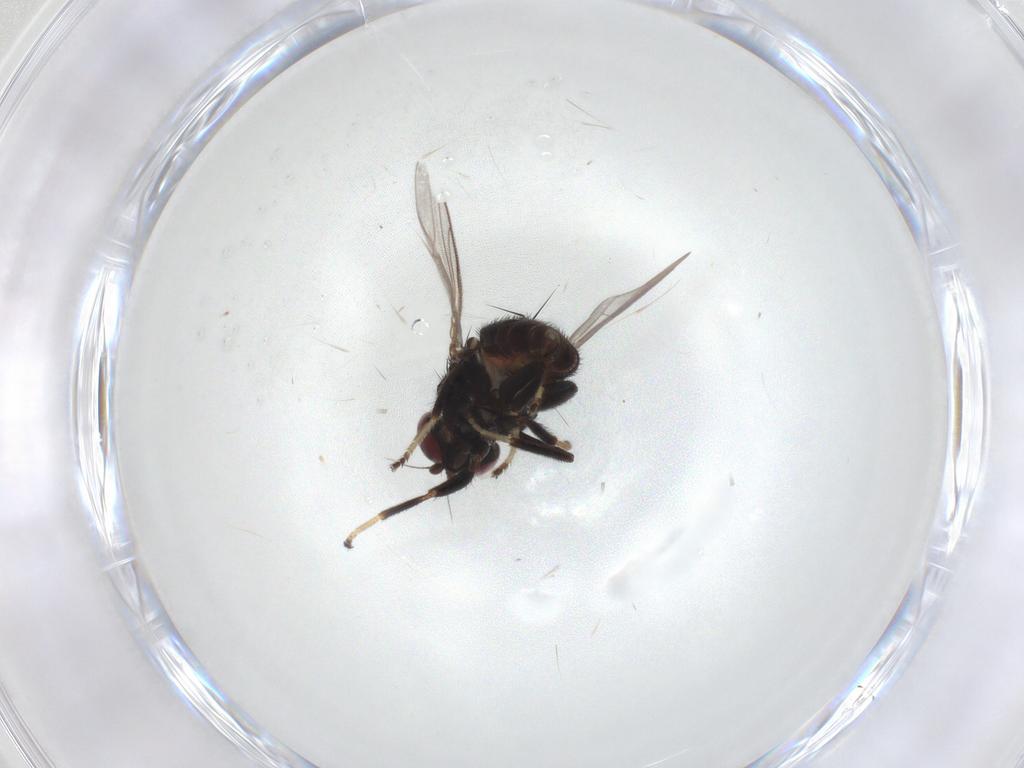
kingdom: Animalia
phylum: Arthropoda
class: Insecta
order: Diptera
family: Chloropidae
